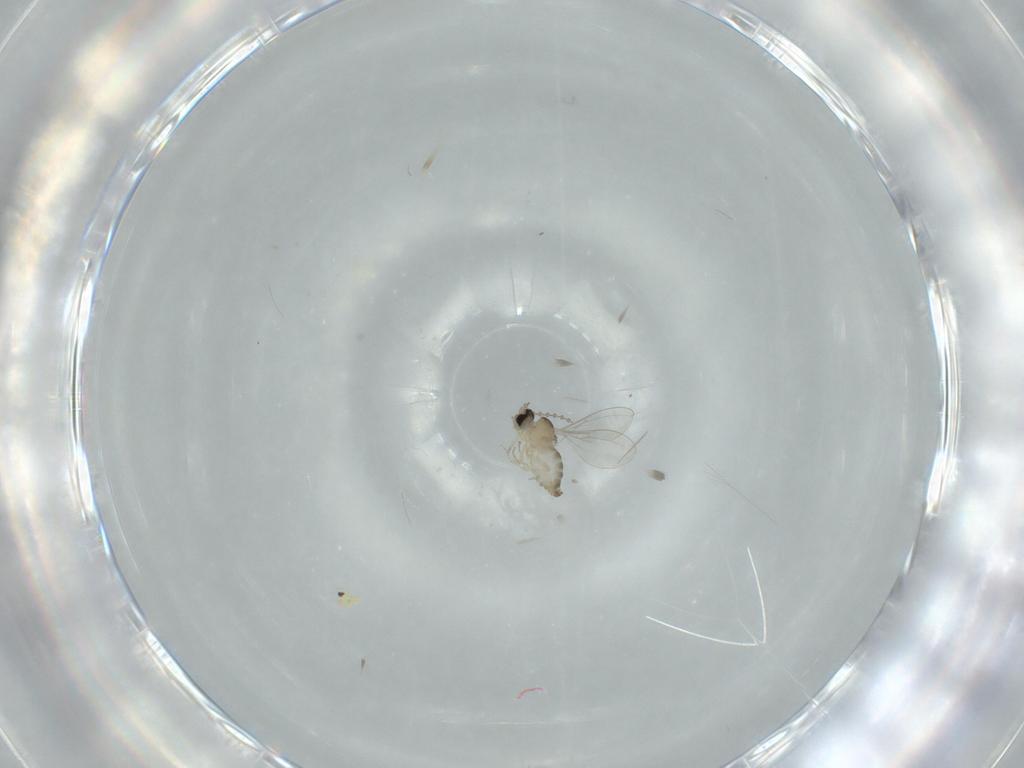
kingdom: Animalia
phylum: Arthropoda
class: Insecta
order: Diptera
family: Cecidomyiidae
